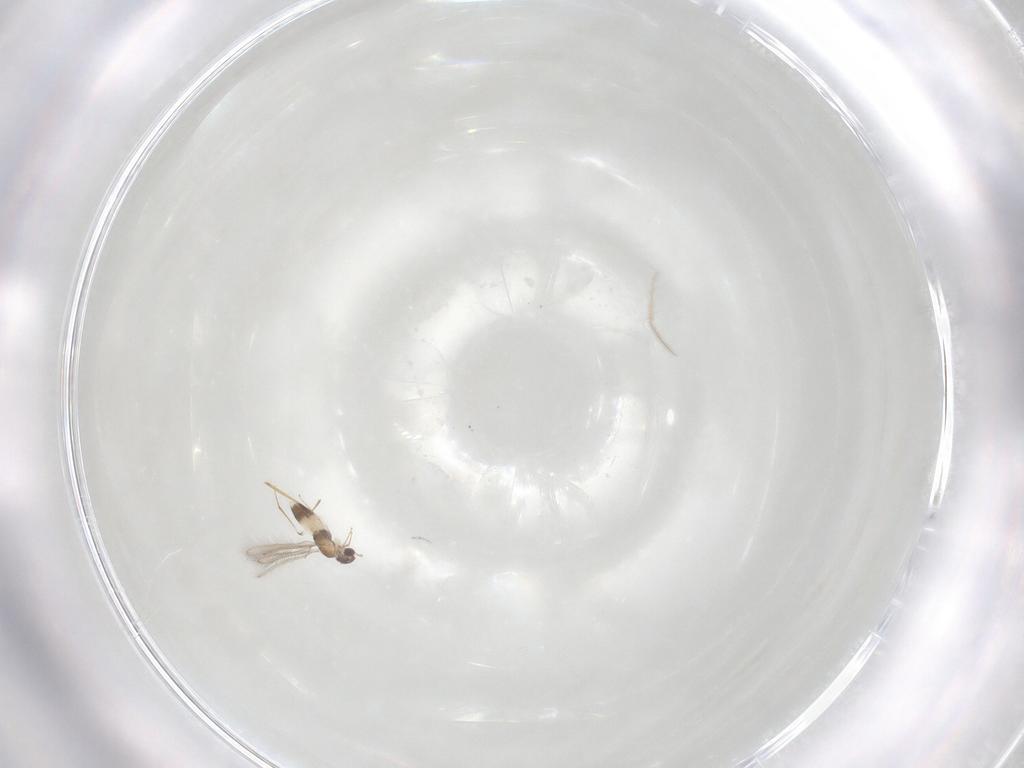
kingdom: Animalia
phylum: Arthropoda
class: Insecta
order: Hymenoptera
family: Mymaridae
